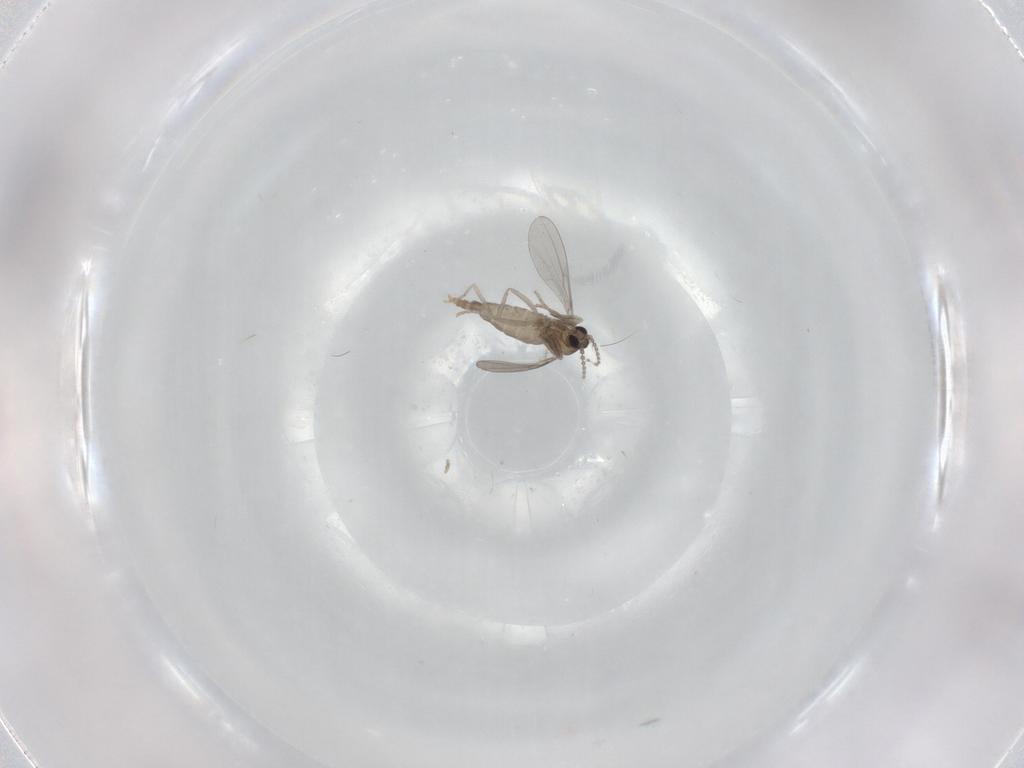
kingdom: Animalia
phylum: Arthropoda
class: Insecta
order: Diptera
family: Cecidomyiidae
